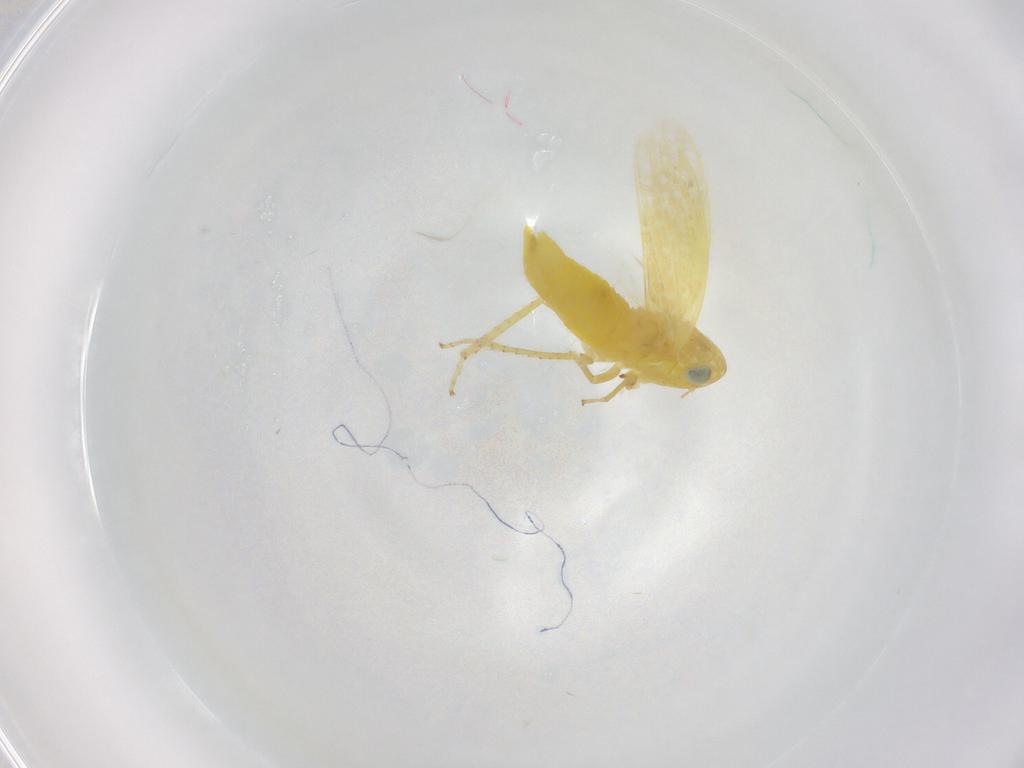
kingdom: Animalia
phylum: Arthropoda
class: Insecta
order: Hemiptera
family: Cicadellidae
